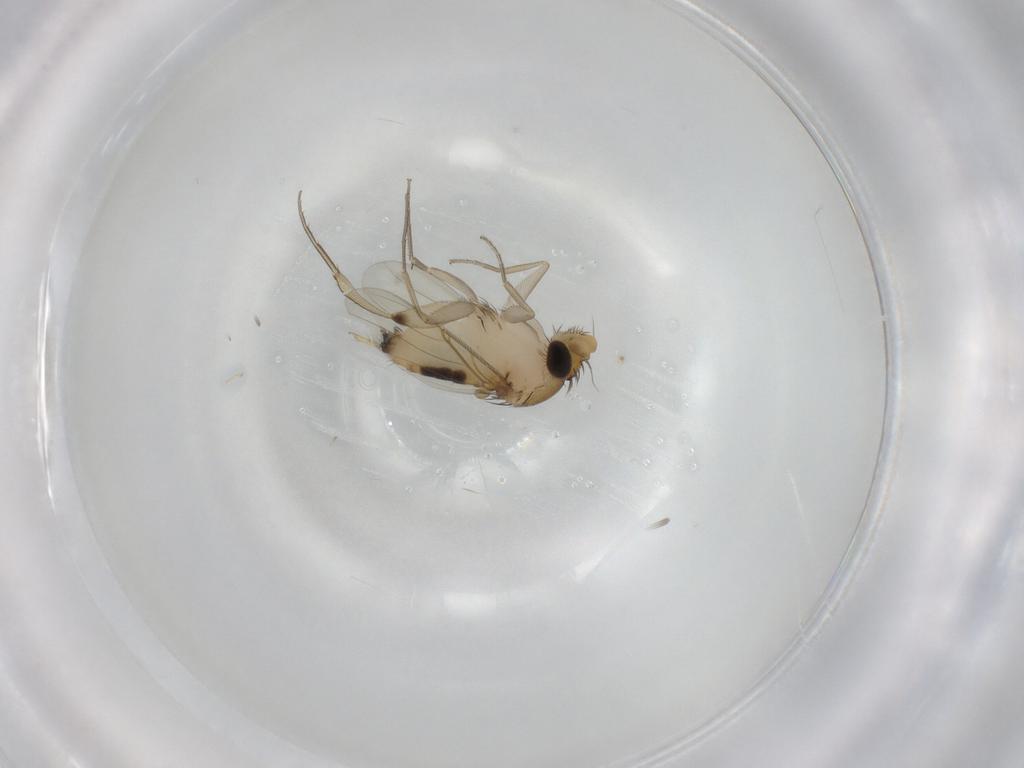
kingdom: Animalia
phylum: Arthropoda
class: Insecta
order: Diptera
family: Phoridae
